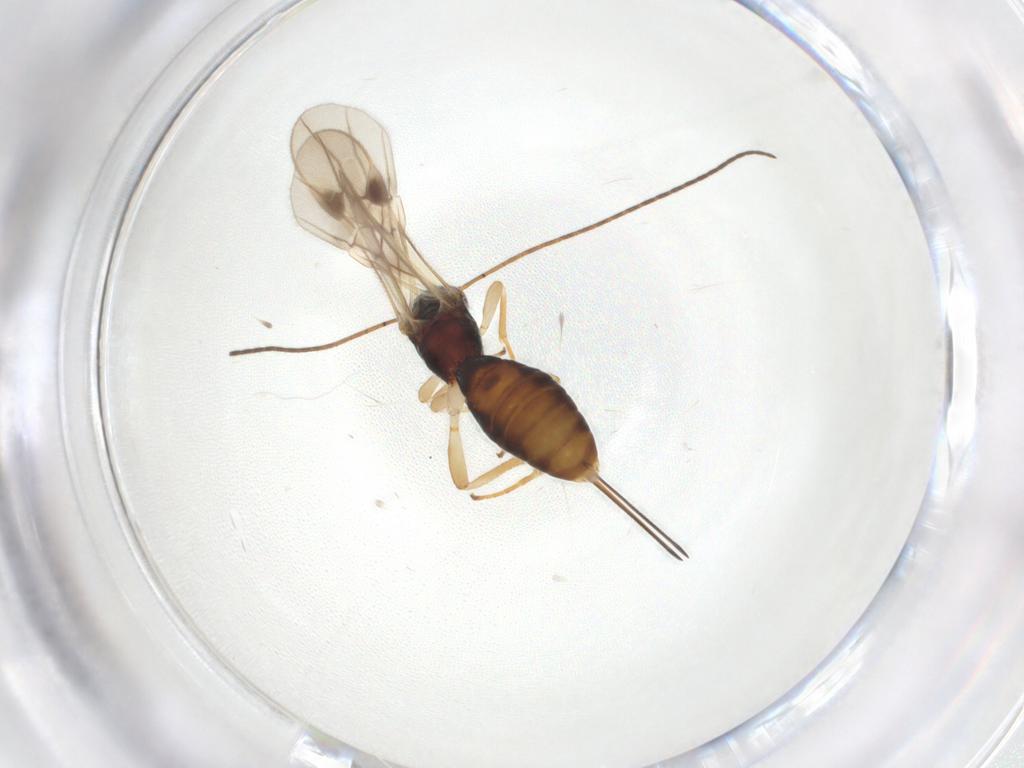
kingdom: Animalia
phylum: Arthropoda
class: Insecta
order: Hymenoptera
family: Braconidae
